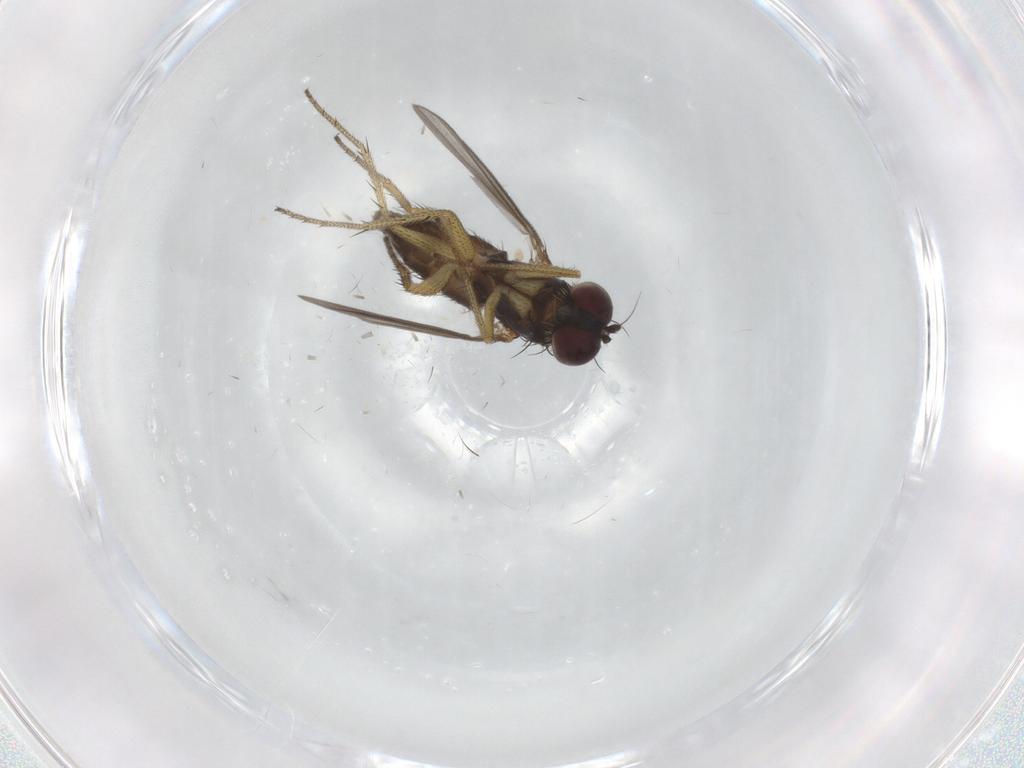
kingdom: Animalia
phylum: Arthropoda
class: Insecta
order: Diptera
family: Dolichopodidae
